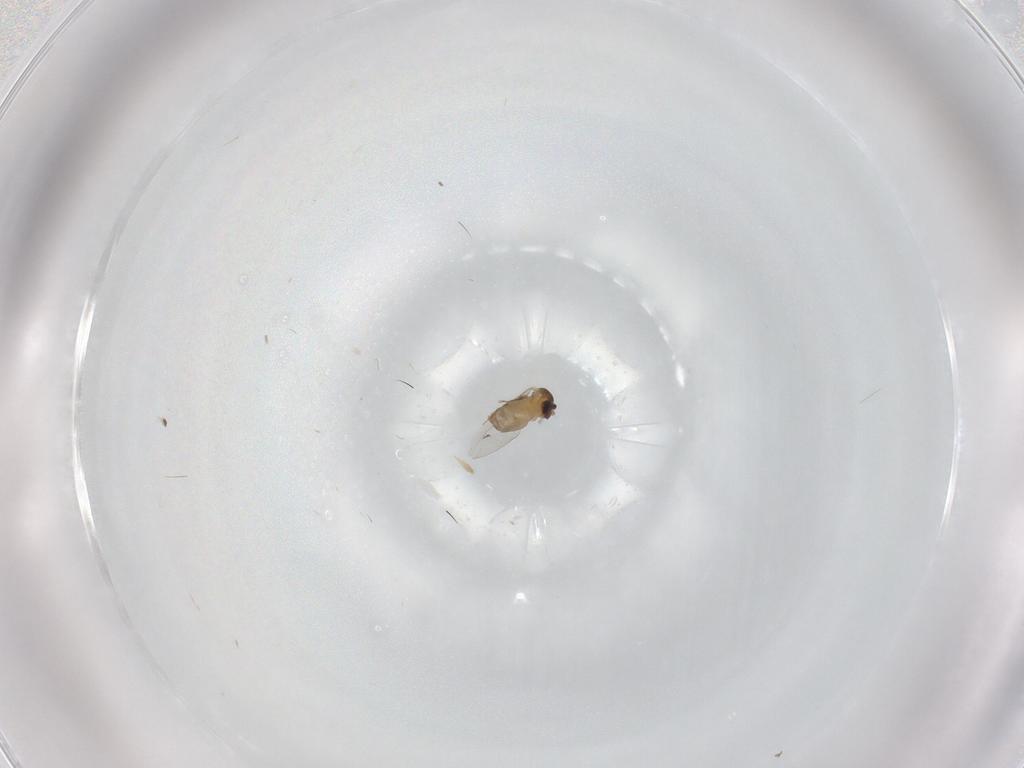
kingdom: Animalia
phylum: Arthropoda
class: Insecta
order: Diptera
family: Cecidomyiidae
